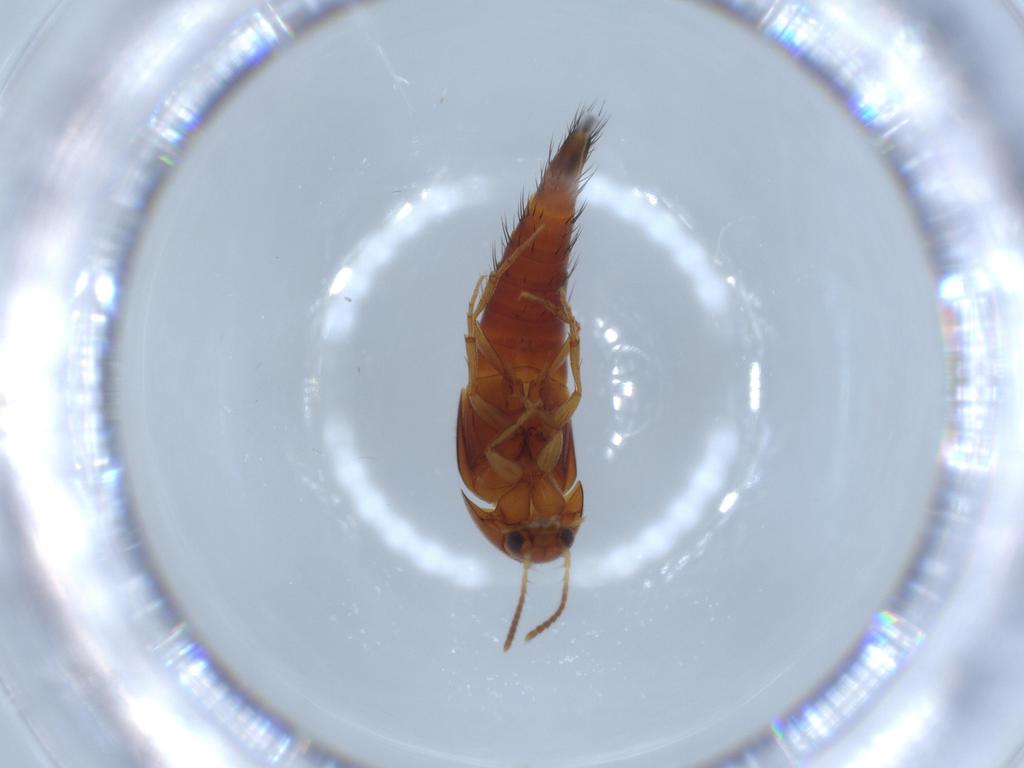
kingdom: Animalia
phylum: Arthropoda
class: Insecta
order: Coleoptera
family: Staphylinidae
